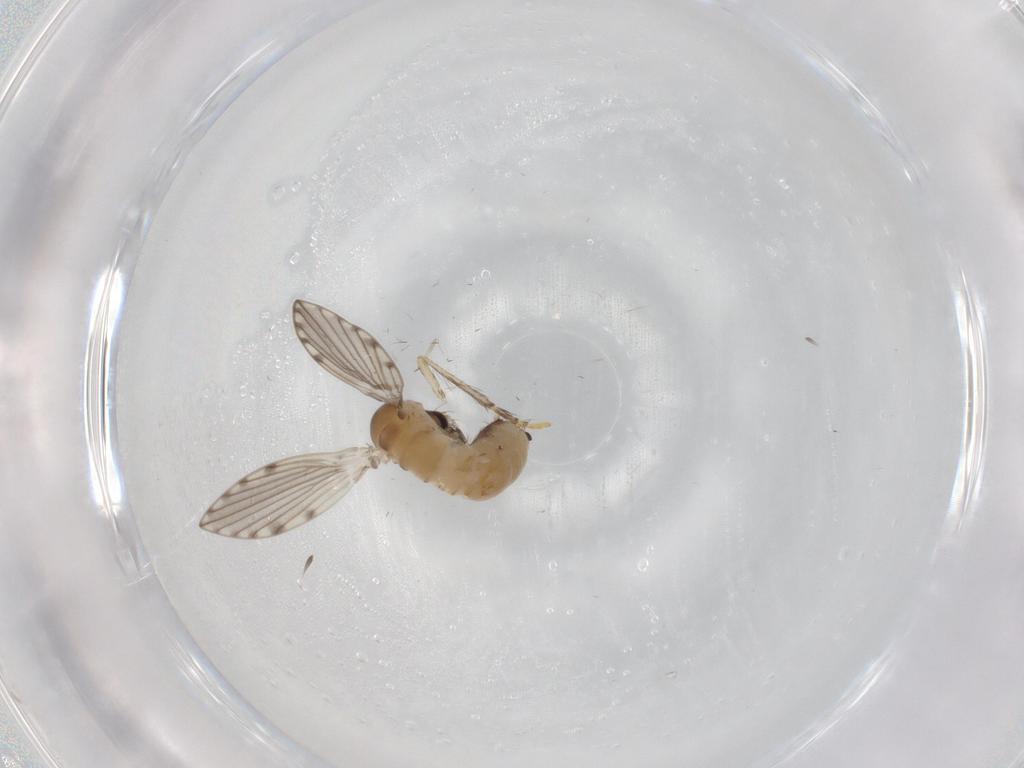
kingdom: Animalia
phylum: Arthropoda
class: Insecta
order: Diptera
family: Psychodidae
